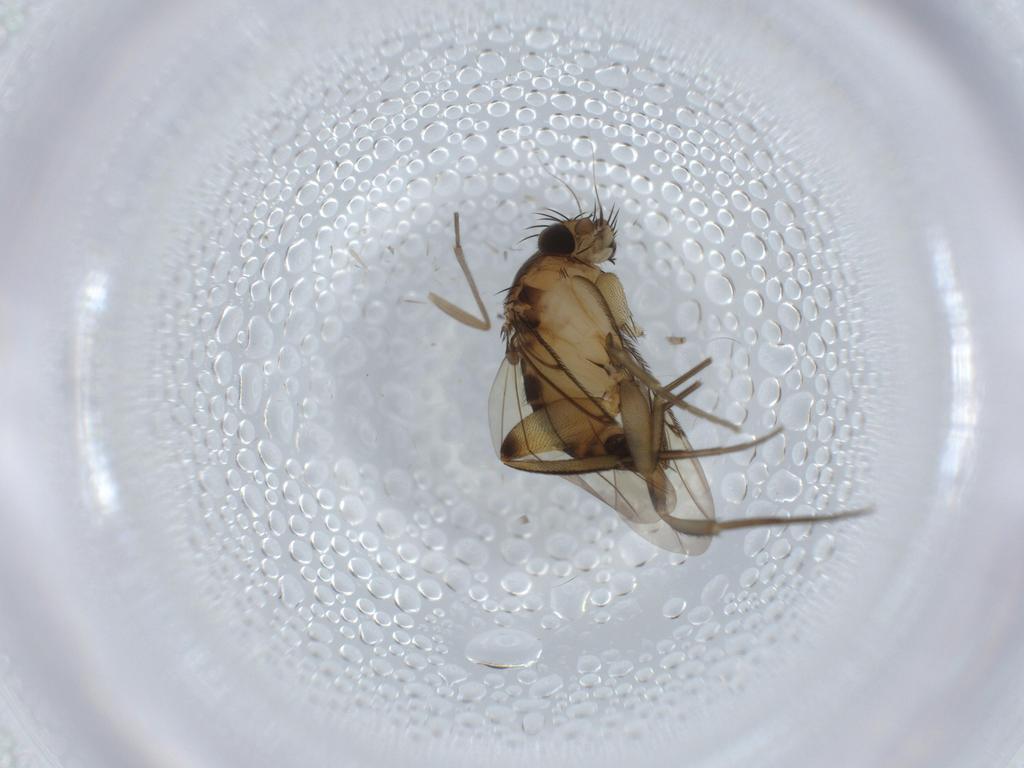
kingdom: Animalia
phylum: Arthropoda
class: Insecta
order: Diptera
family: Phoridae
